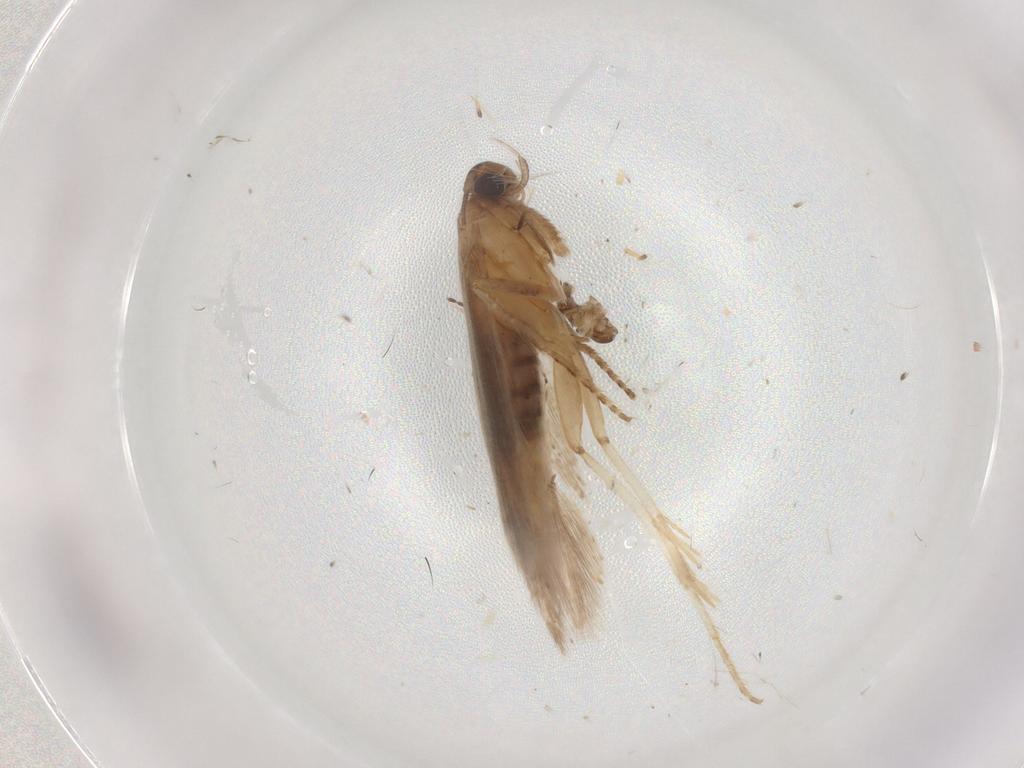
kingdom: Animalia
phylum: Arthropoda
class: Insecta
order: Lepidoptera
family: Gelechiidae
